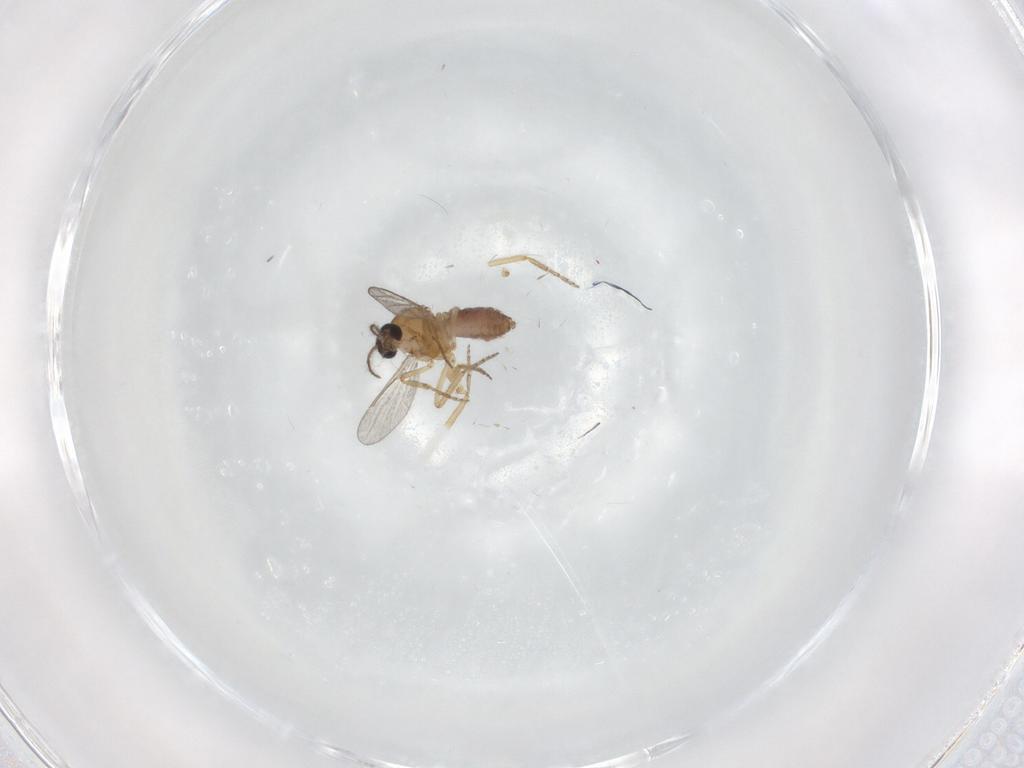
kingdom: Animalia
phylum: Arthropoda
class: Insecta
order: Diptera
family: Ceratopogonidae
